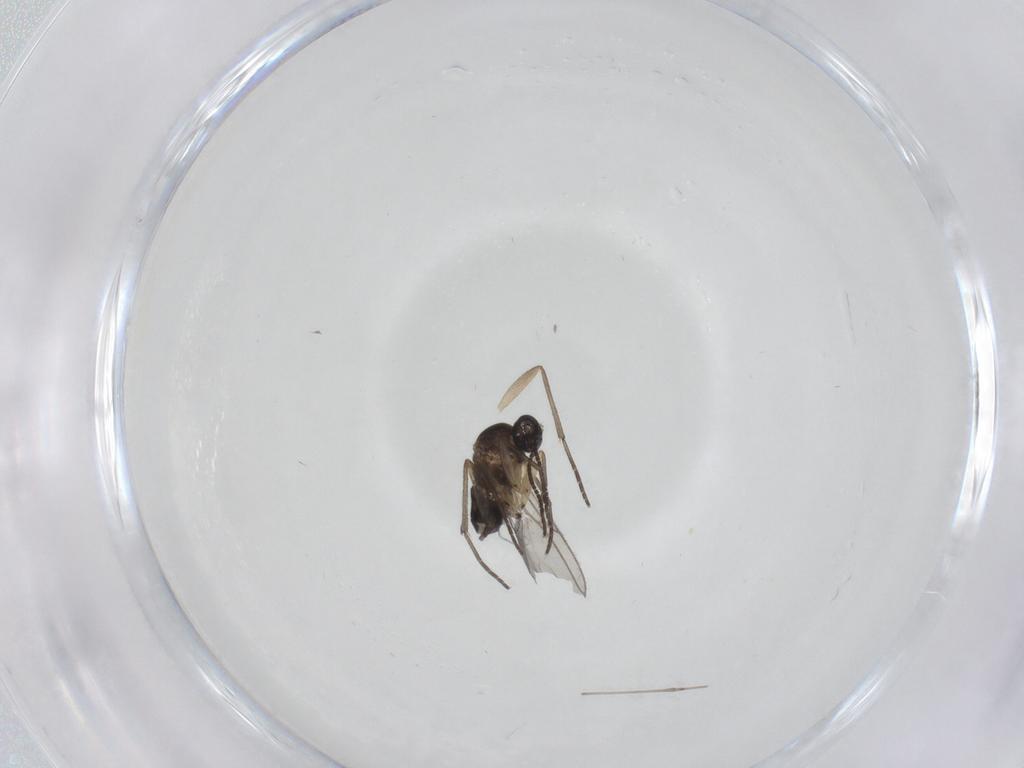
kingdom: Animalia
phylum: Arthropoda
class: Insecta
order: Diptera
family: Sciaridae
